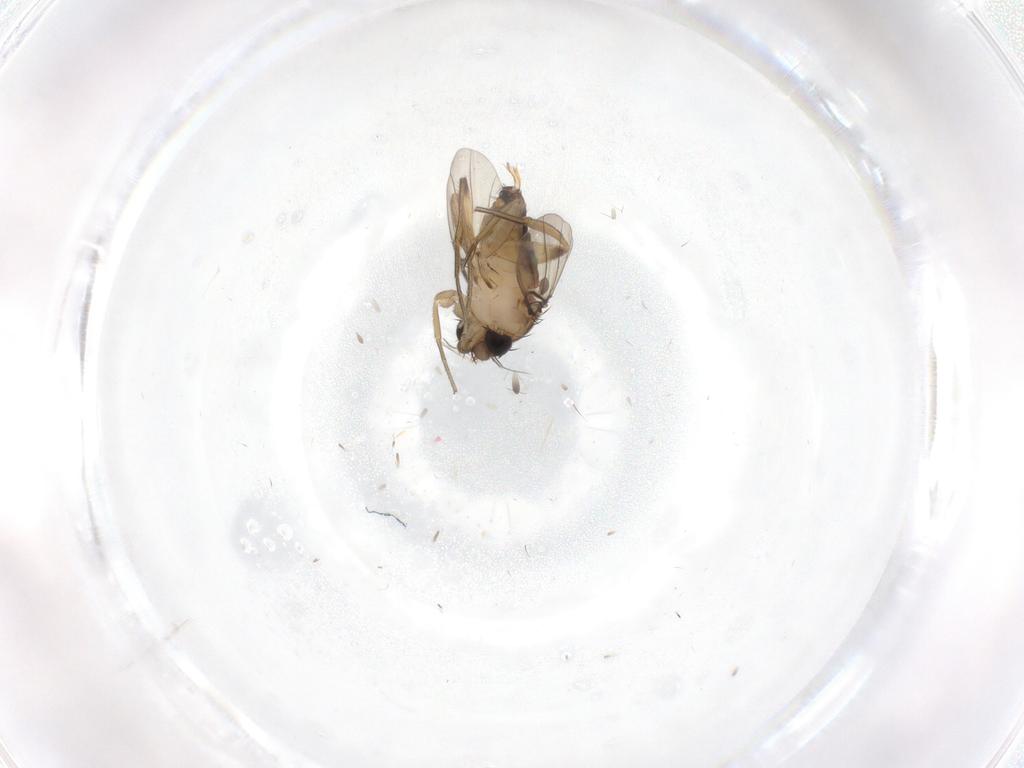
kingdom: Animalia
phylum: Arthropoda
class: Insecta
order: Diptera
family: Phoridae
